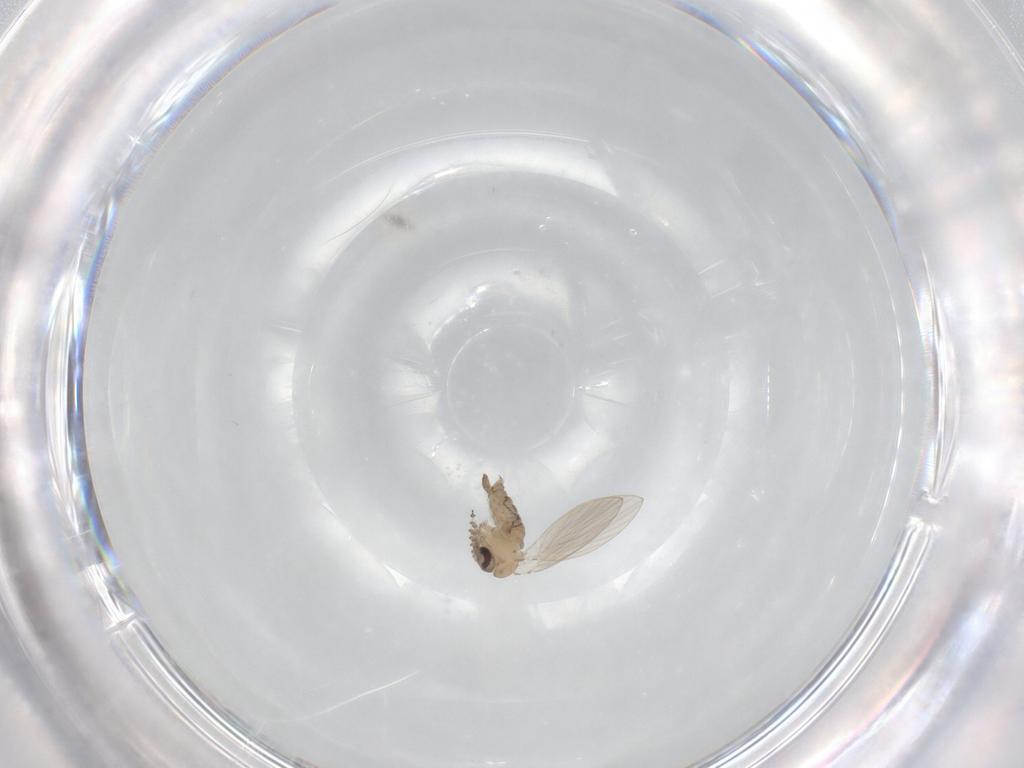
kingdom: Animalia
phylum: Arthropoda
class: Insecta
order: Diptera
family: Psychodidae
